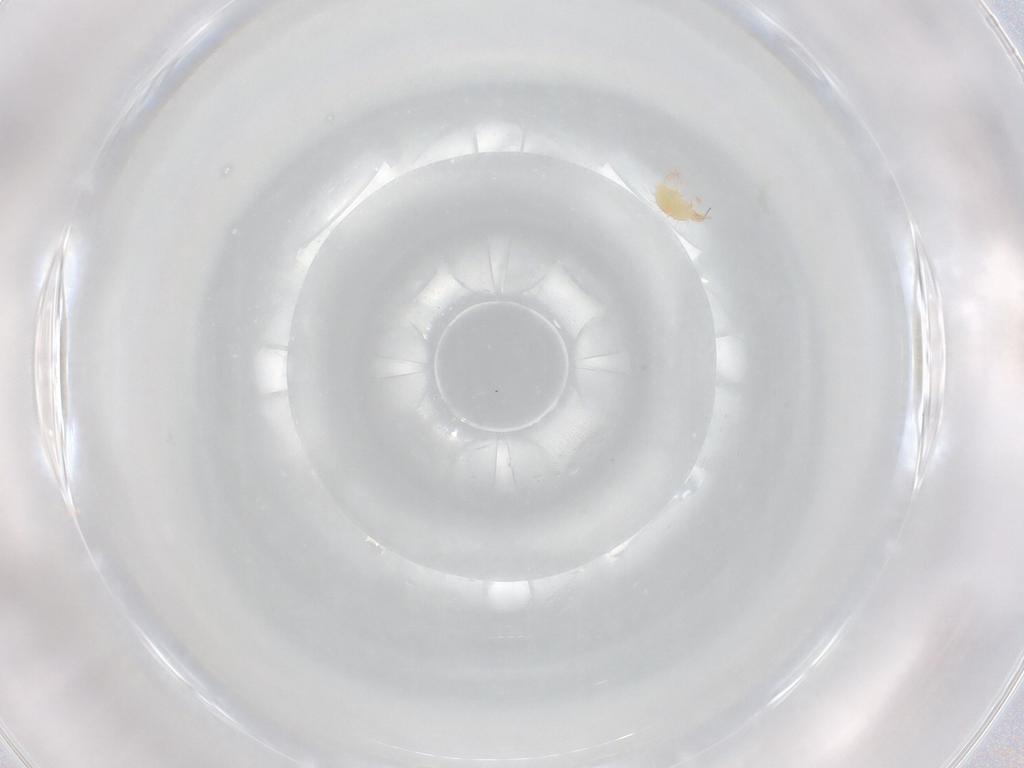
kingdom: Animalia
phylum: Arthropoda
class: Arachnida
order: Trombidiformes
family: Stigmaeidae
